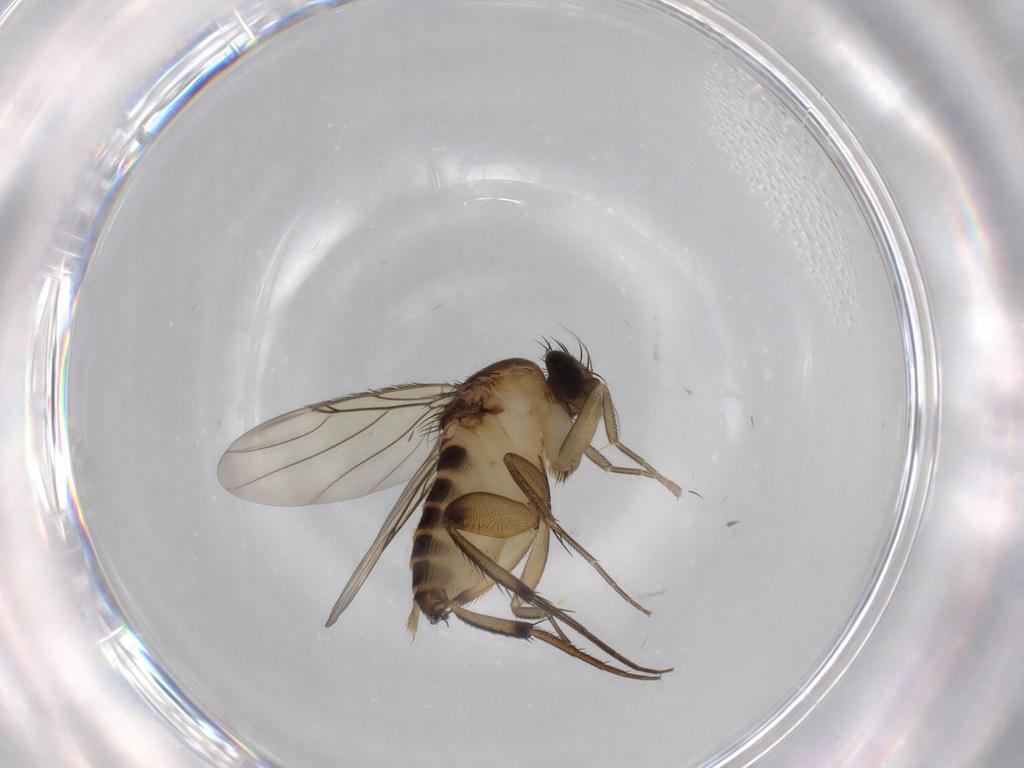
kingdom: Animalia
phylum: Arthropoda
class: Insecta
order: Diptera
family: Phoridae
